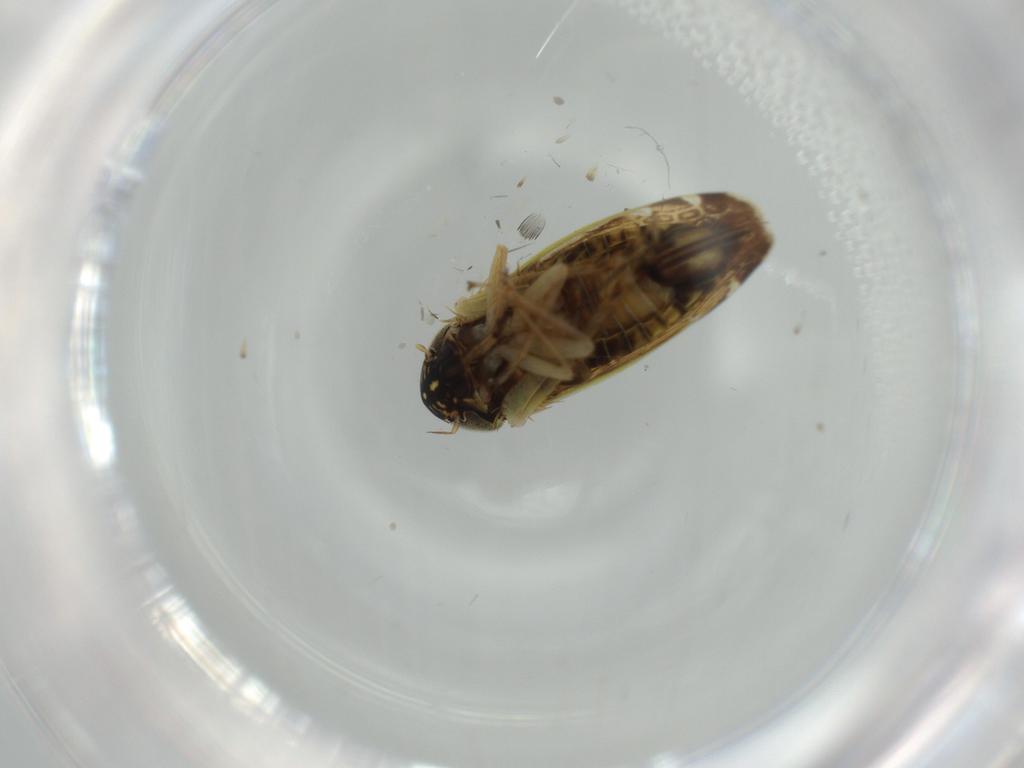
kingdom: Animalia
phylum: Arthropoda
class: Insecta
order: Hemiptera
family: Cicadellidae
